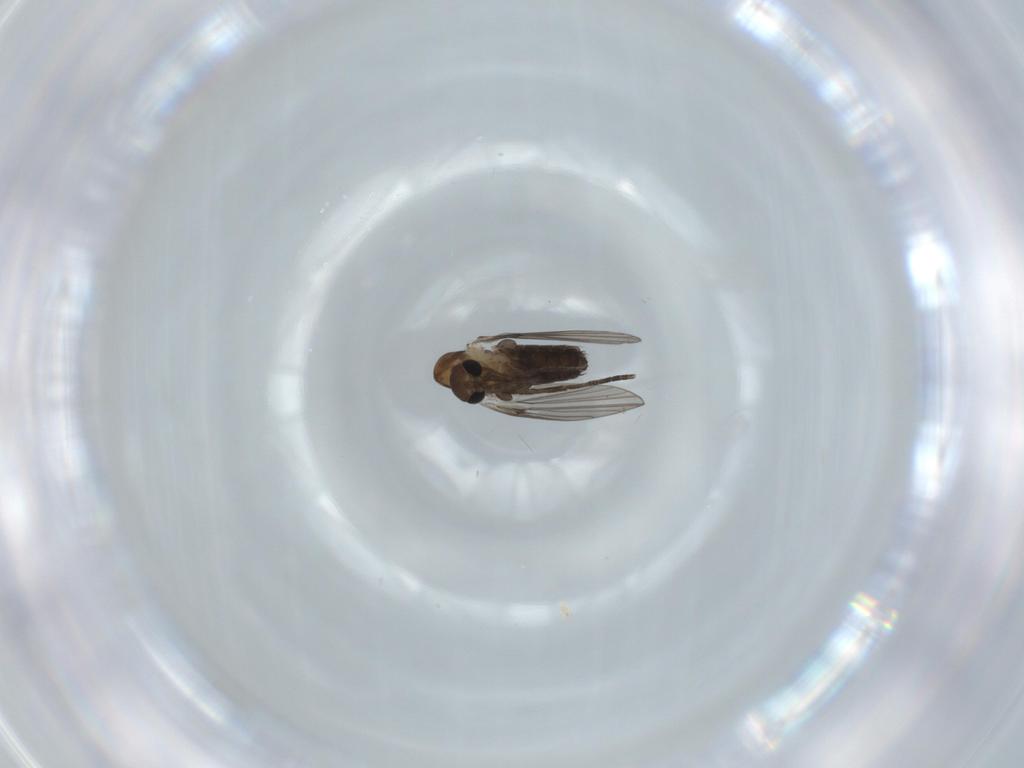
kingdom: Animalia
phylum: Arthropoda
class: Insecta
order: Diptera
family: Psychodidae
